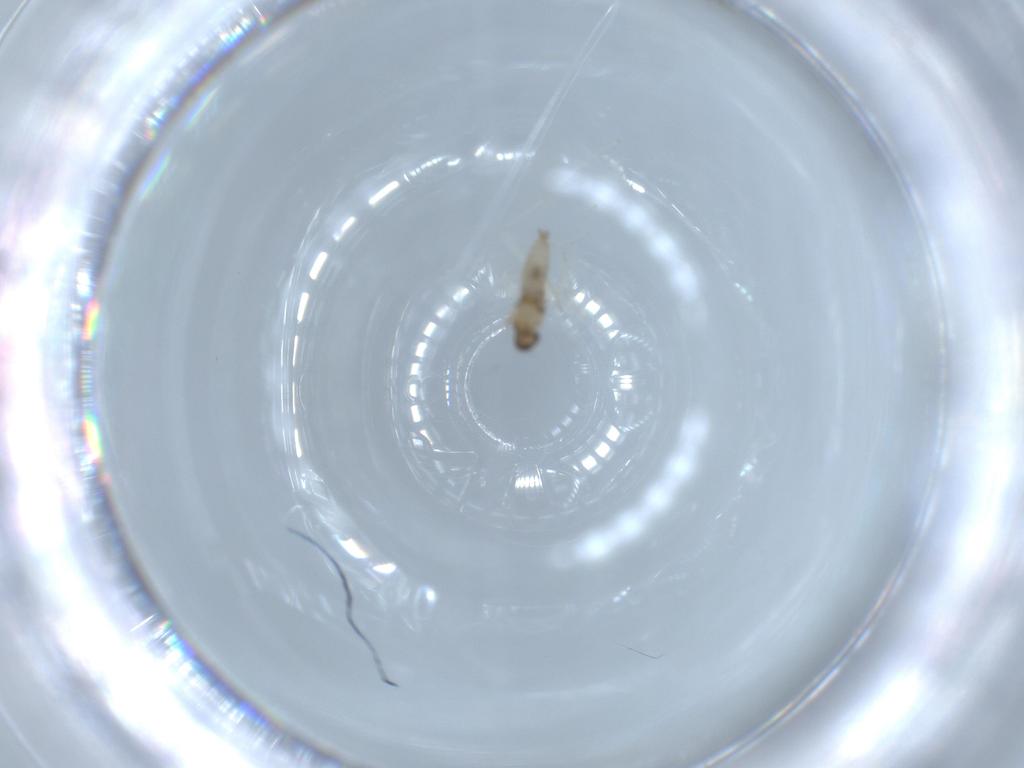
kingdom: Animalia
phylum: Arthropoda
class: Insecta
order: Diptera
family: Cecidomyiidae
